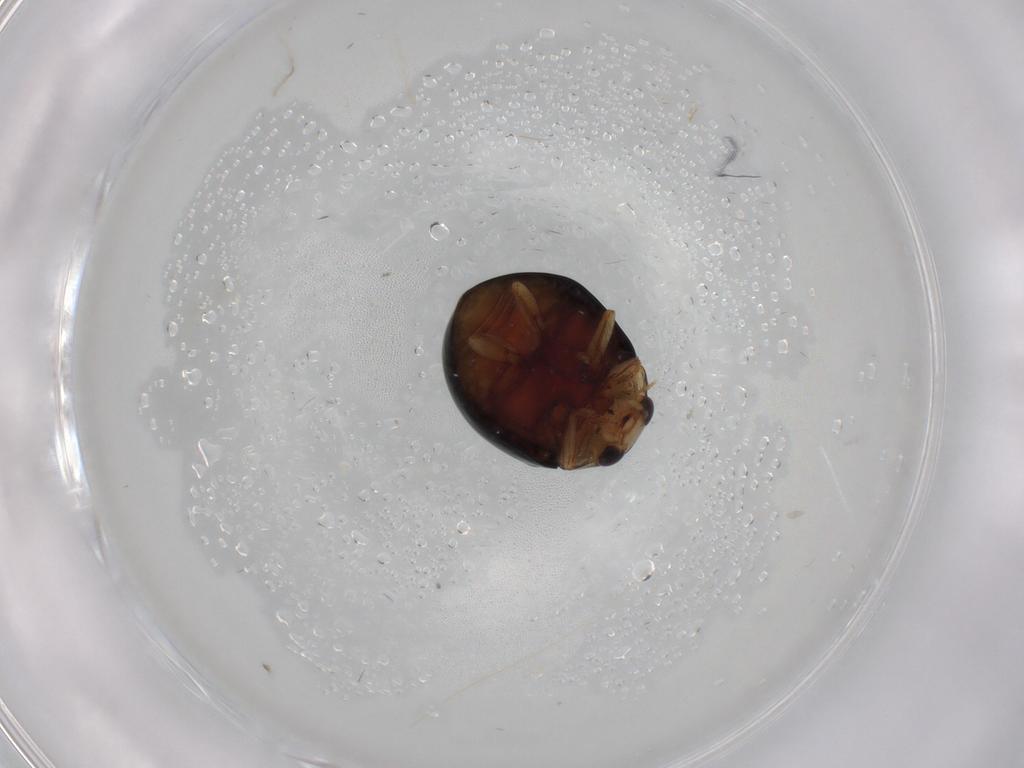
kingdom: Animalia
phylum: Arthropoda
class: Insecta
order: Coleoptera
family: Coccinellidae
